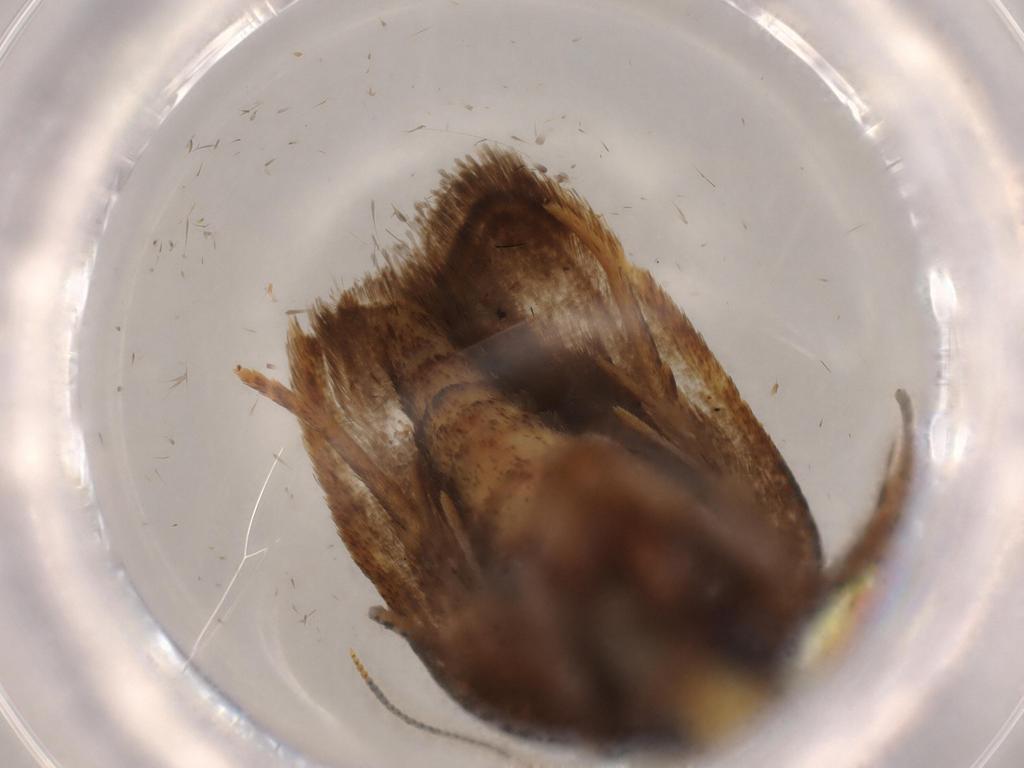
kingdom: Animalia
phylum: Arthropoda
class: Insecta
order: Lepidoptera
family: Autostichidae
